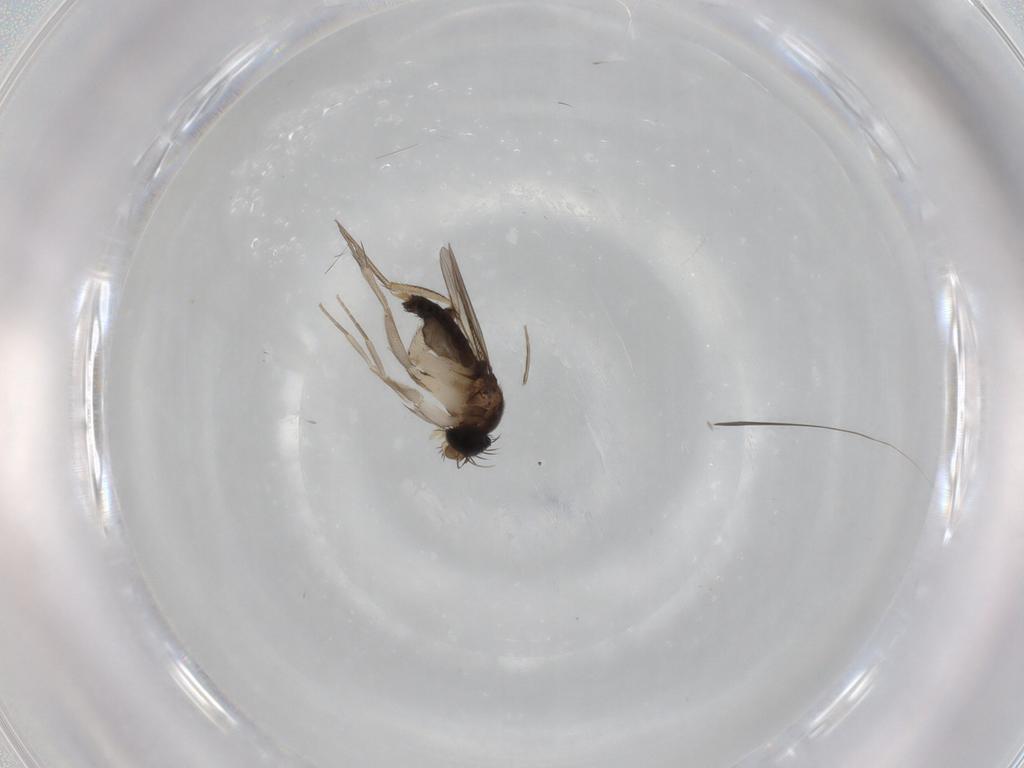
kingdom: Animalia
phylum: Arthropoda
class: Insecta
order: Diptera
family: Phoridae
